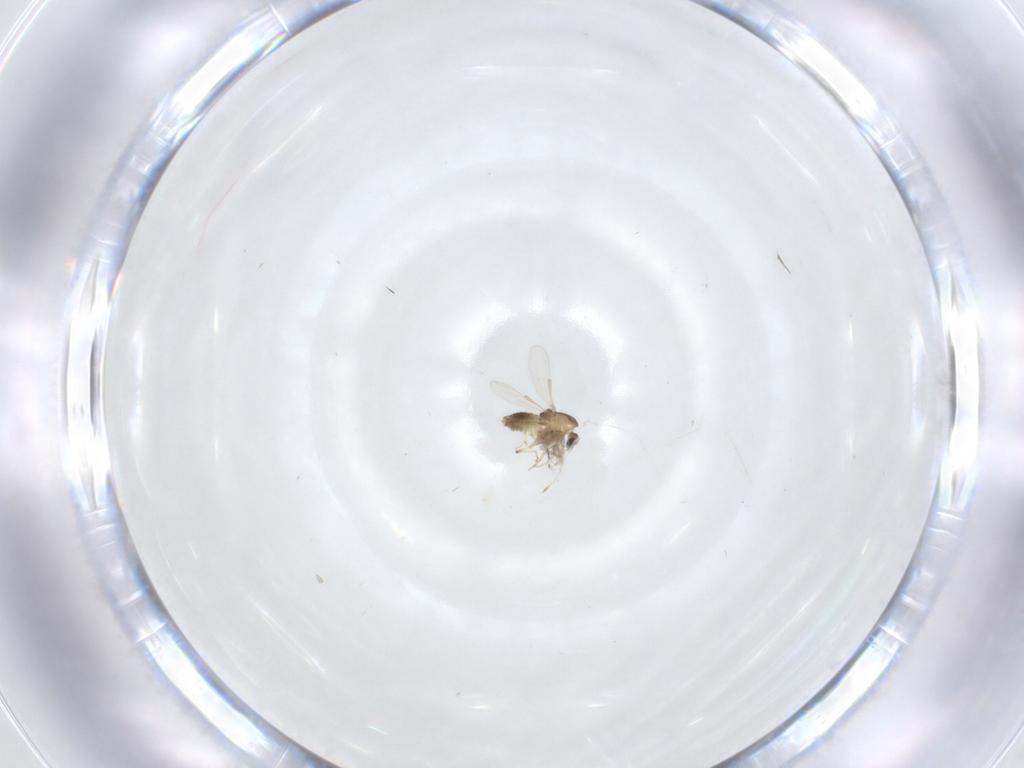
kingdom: Animalia
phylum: Arthropoda
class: Insecta
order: Diptera
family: Chironomidae
